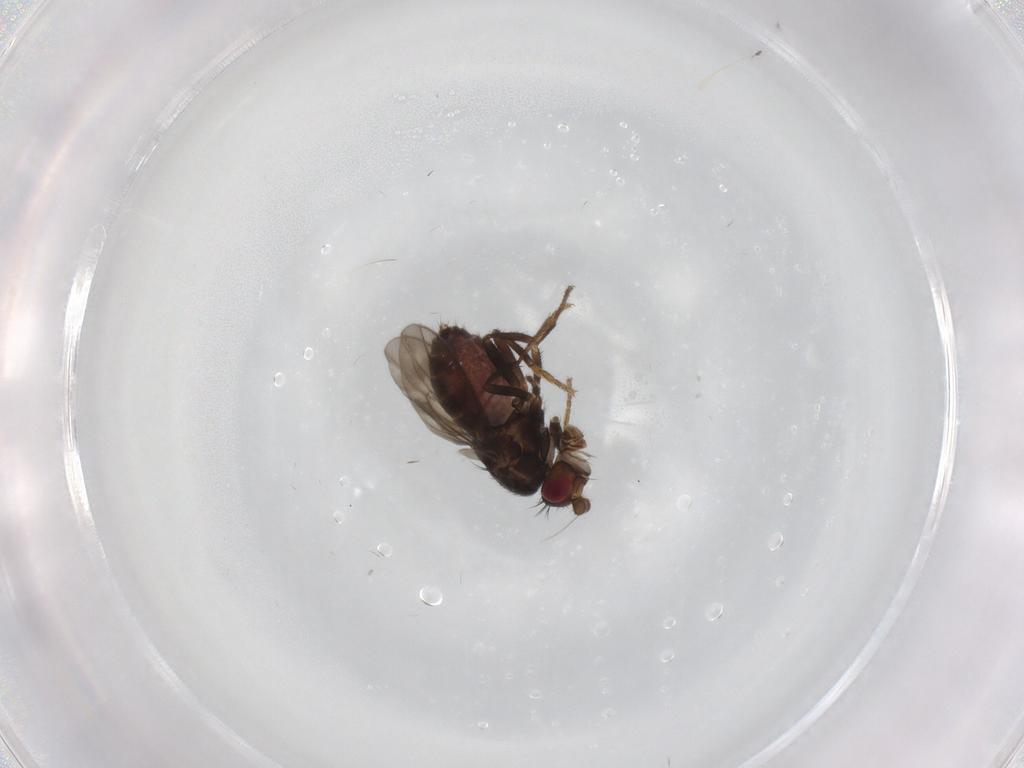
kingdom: Animalia
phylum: Arthropoda
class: Insecta
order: Diptera
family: Sphaeroceridae
